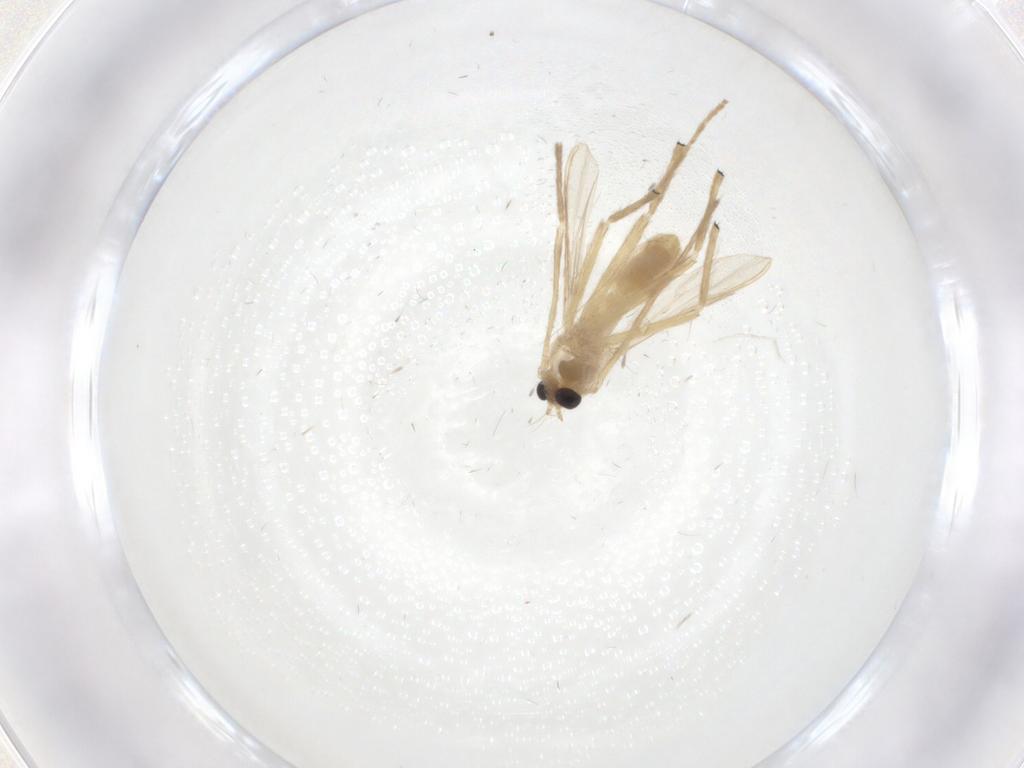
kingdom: Animalia
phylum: Arthropoda
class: Insecta
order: Diptera
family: Chironomidae
